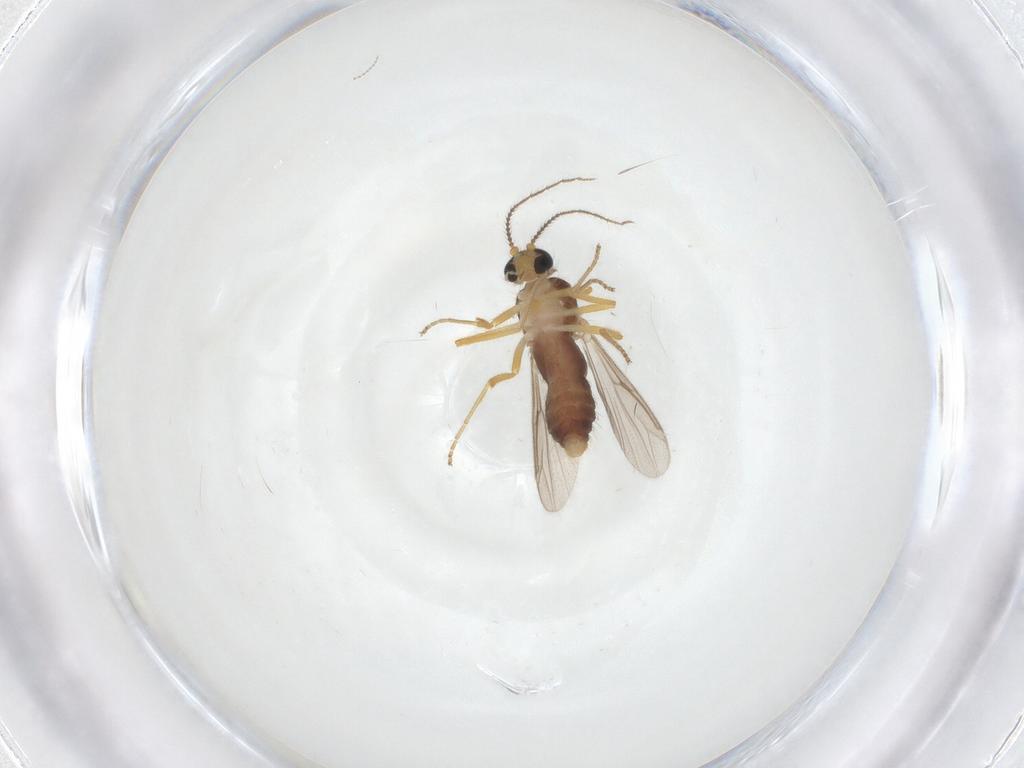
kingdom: Animalia
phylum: Arthropoda
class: Insecta
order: Diptera
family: Ceratopogonidae
